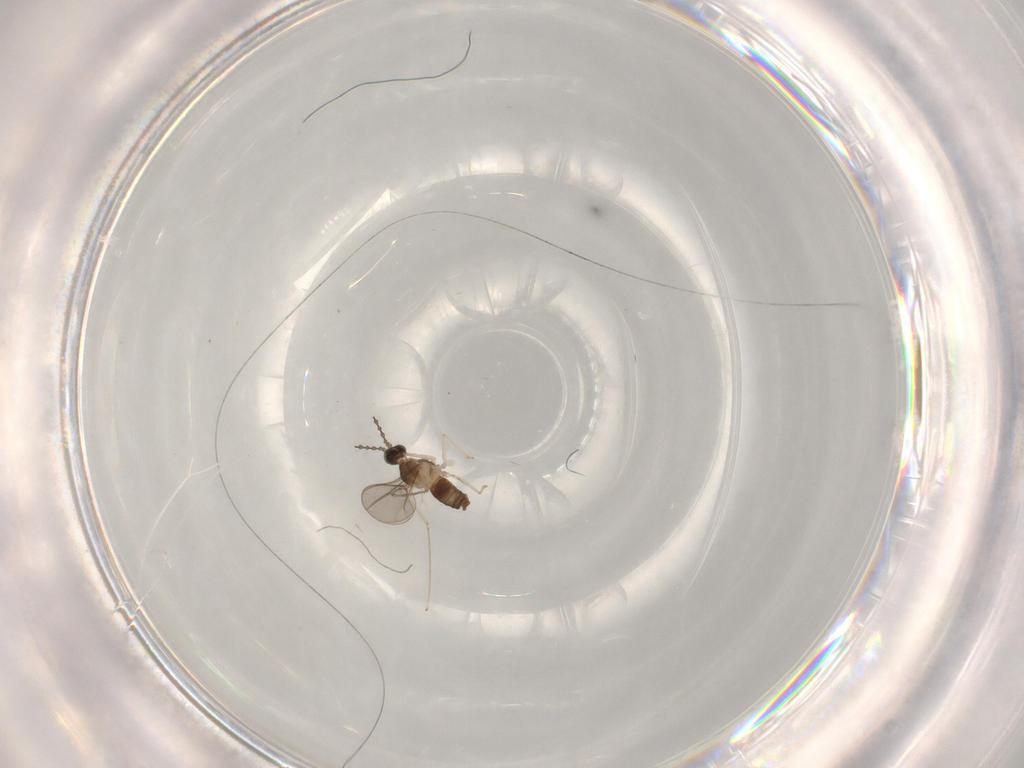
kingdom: Animalia
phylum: Arthropoda
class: Insecta
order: Diptera
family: Cecidomyiidae
